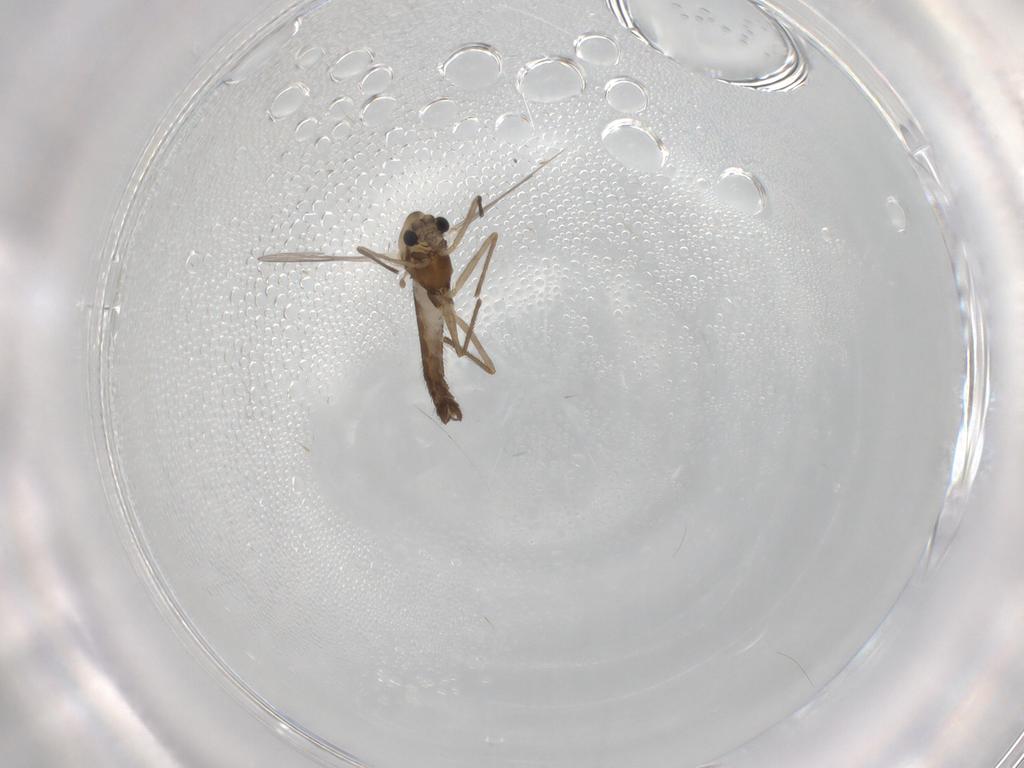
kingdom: Animalia
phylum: Arthropoda
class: Insecta
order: Diptera
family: Chironomidae
